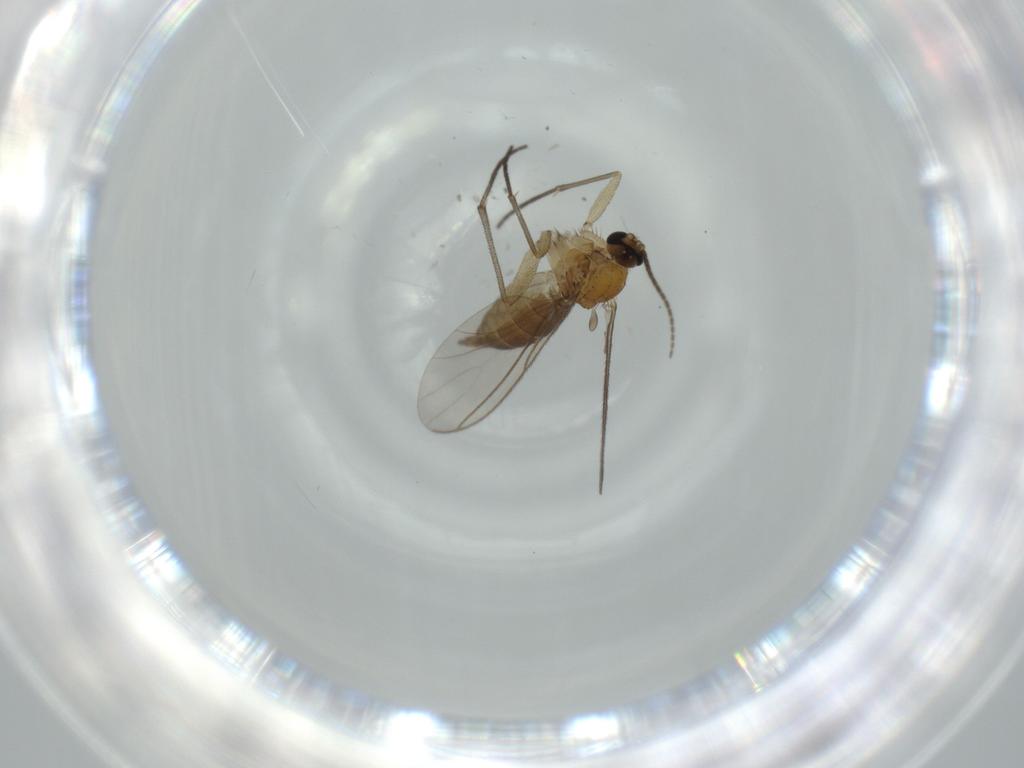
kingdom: Animalia
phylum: Arthropoda
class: Insecta
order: Diptera
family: Sciaridae
